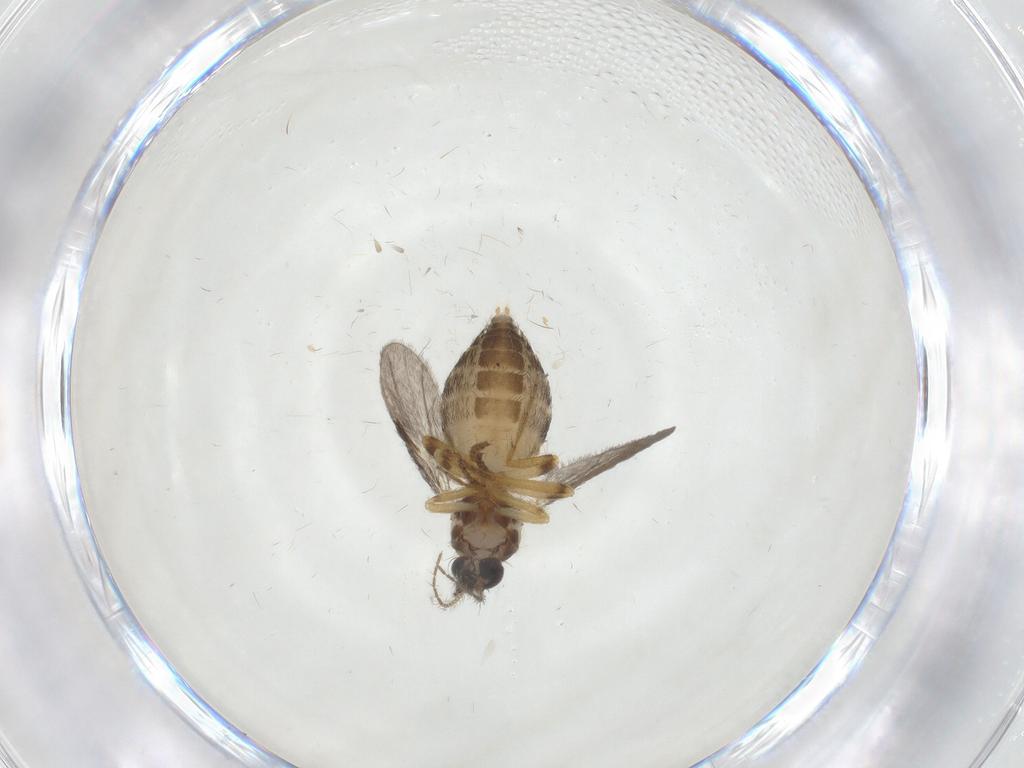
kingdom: Animalia
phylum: Arthropoda
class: Insecta
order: Diptera
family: Ceratopogonidae
